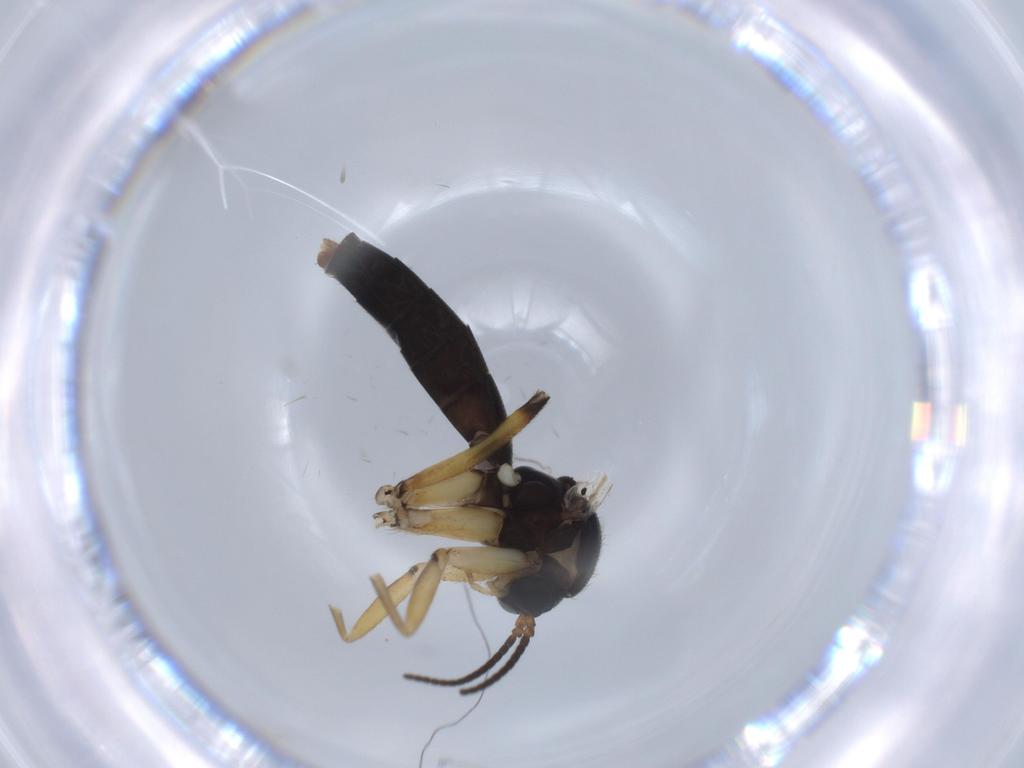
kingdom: Animalia
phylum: Arthropoda
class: Insecta
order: Diptera
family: Mycetophilidae
